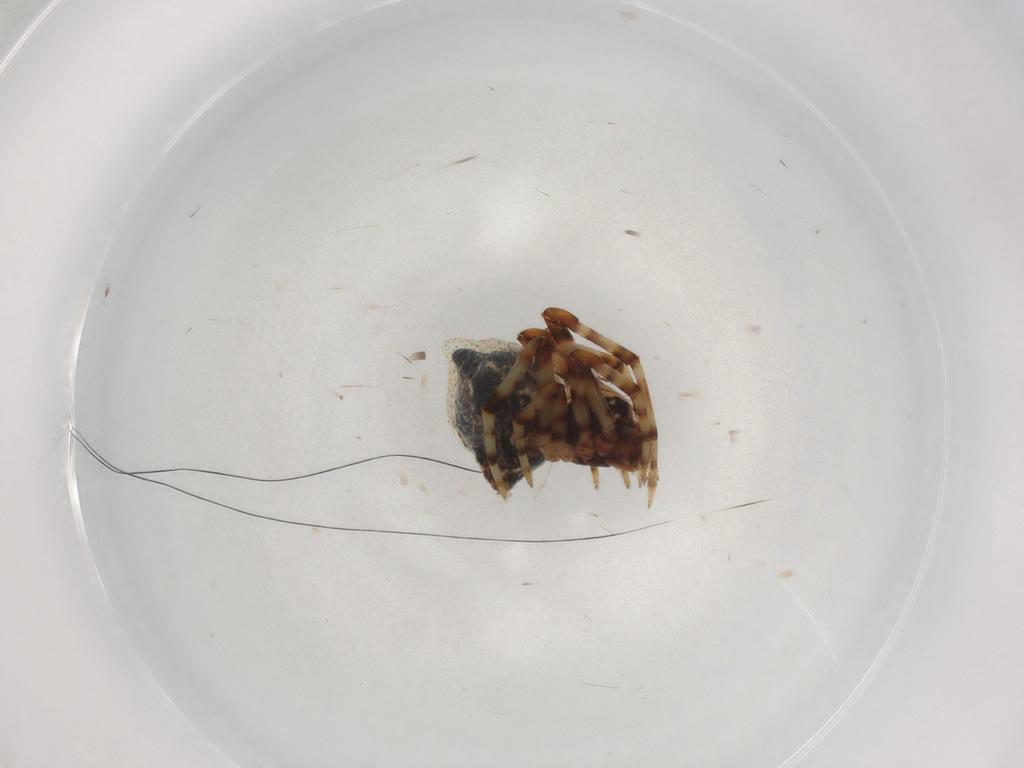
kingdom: Animalia
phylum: Arthropoda
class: Arachnida
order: Araneae
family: Theridiidae
